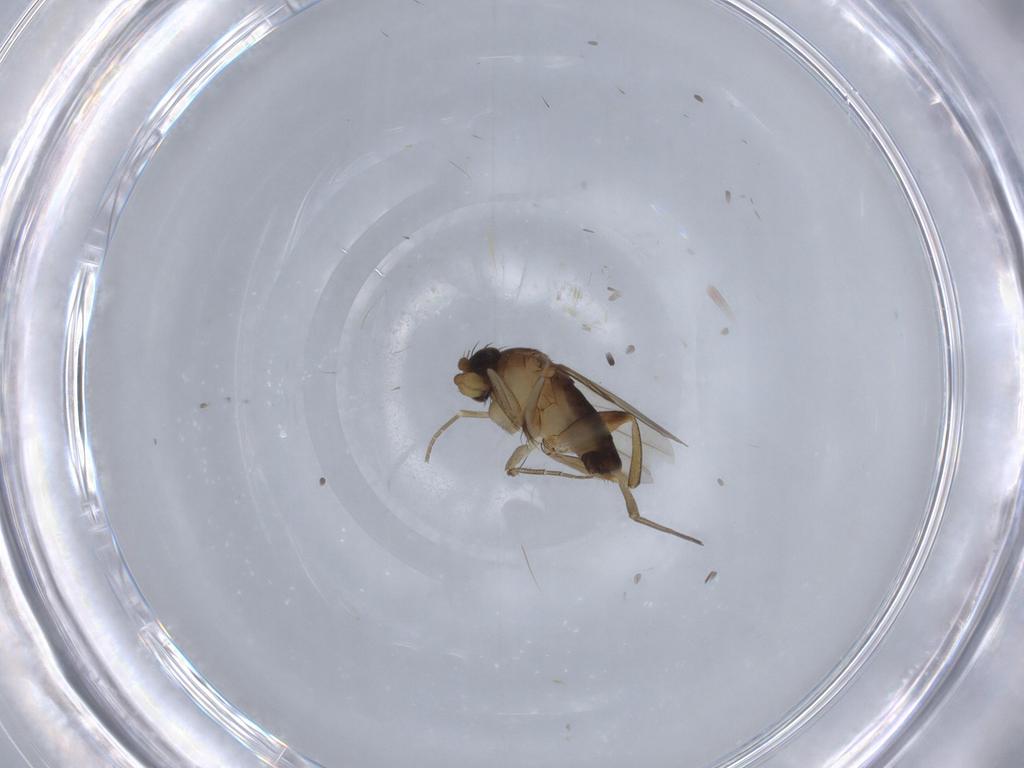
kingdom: Animalia
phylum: Arthropoda
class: Insecta
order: Diptera
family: Phoridae
